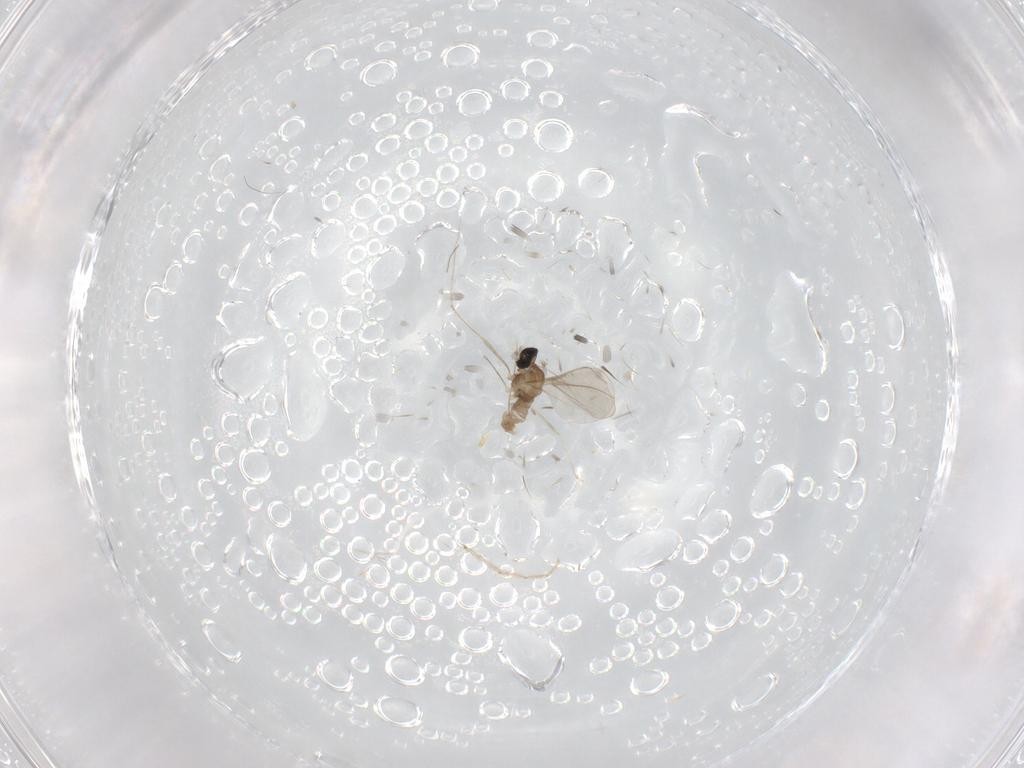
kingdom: Animalia
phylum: Arthropoda
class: Insecta
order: Diptera
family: Chironomidae
